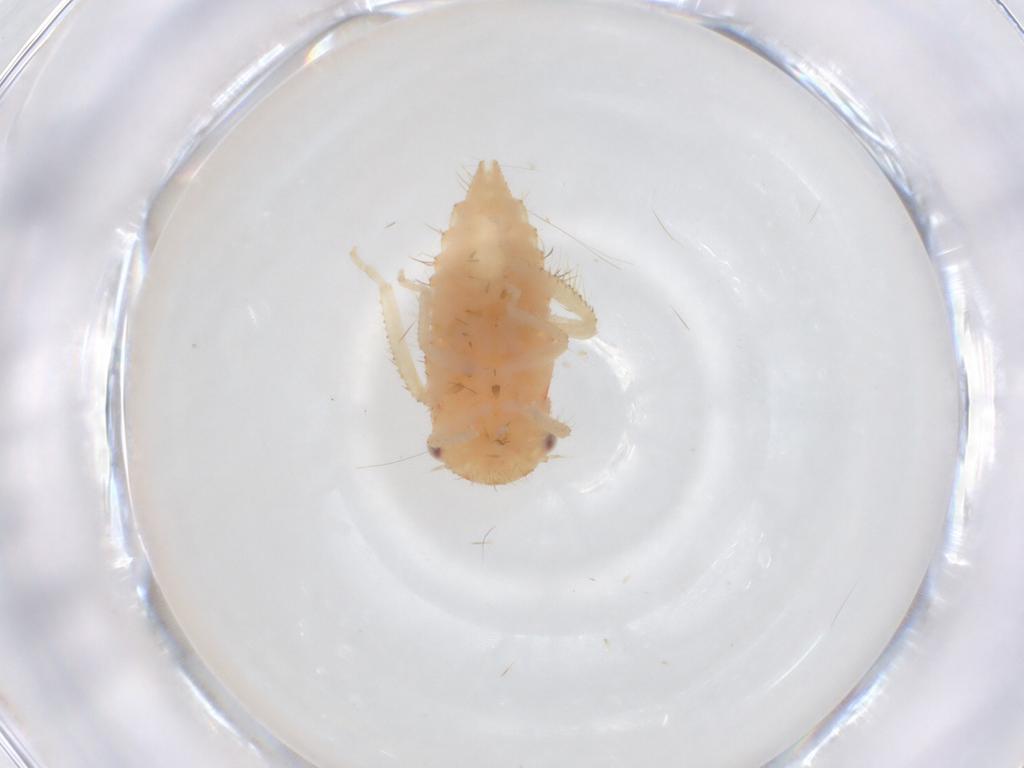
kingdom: Animalia
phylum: Arthropoda
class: Insecta
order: Hemiptera
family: Cicadellidae
